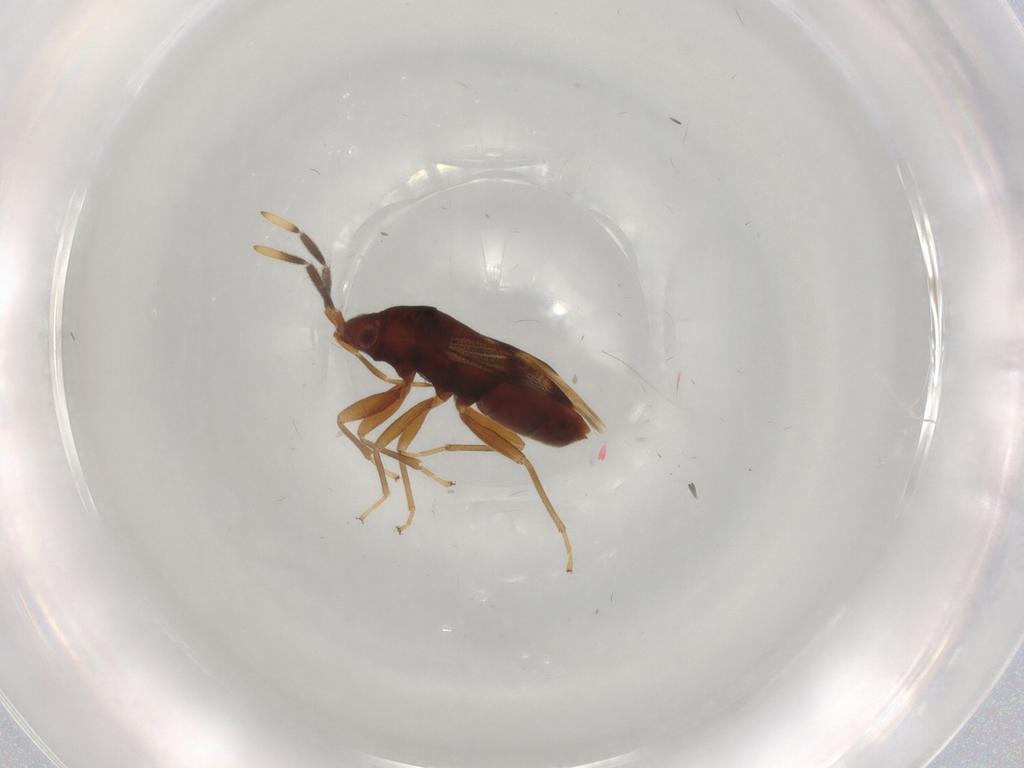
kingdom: Animalia
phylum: Arthropoda
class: Insecta
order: Hemiptera
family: Rhyparochromidae
